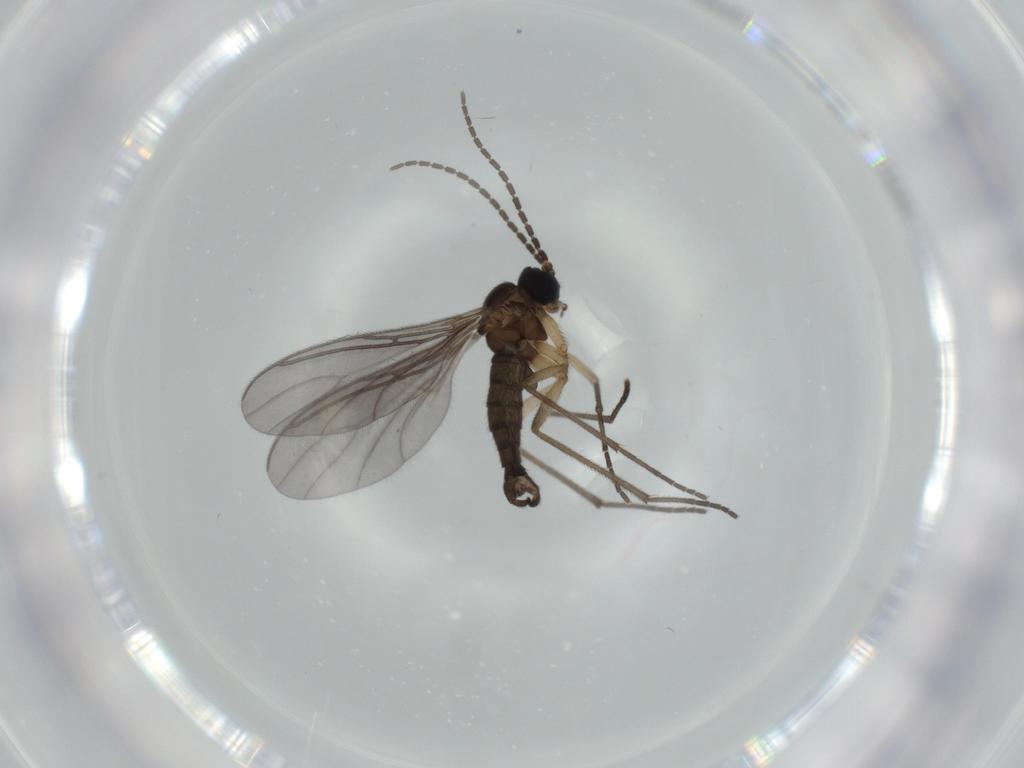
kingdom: Animalia
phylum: Arthropoda
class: Insecta
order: Diptera
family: Sciaridae
